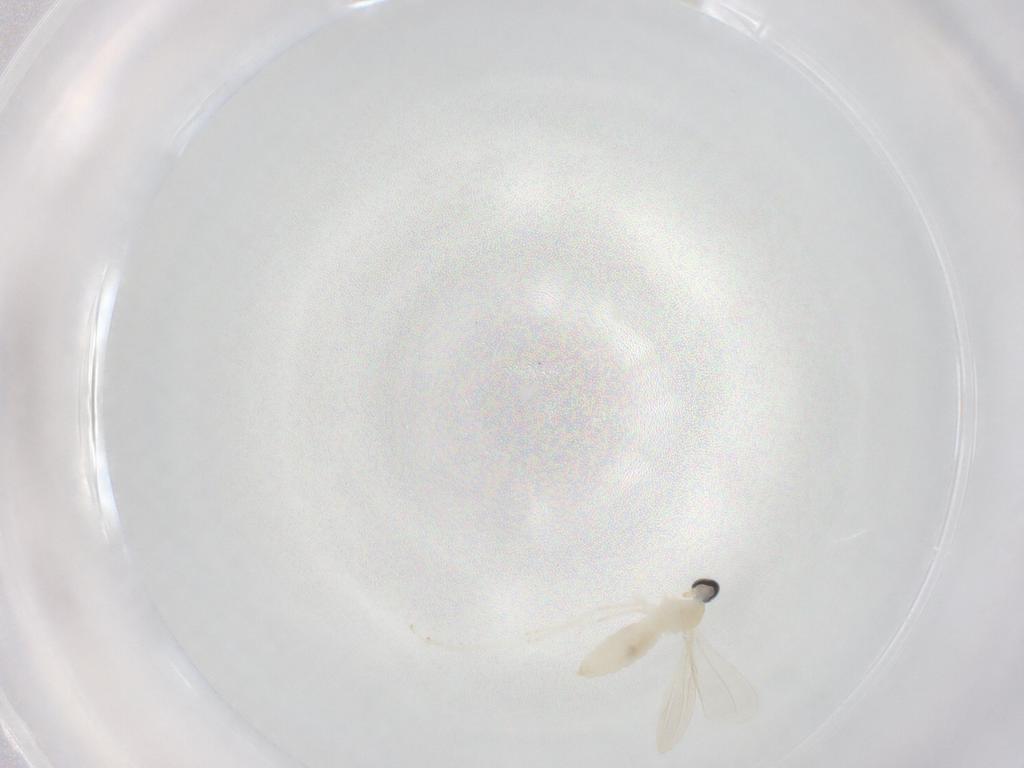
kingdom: Animalia
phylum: Arthropoda
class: Insecta
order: Diptera
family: Cecidomyiidae
